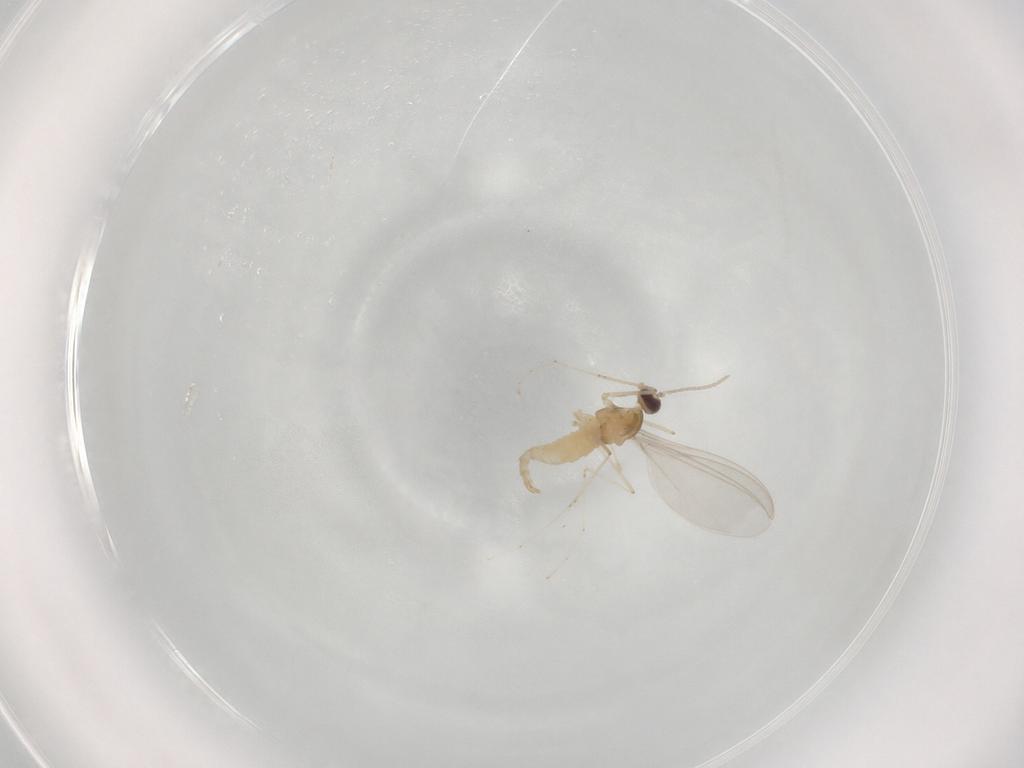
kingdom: Animalia
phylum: Arthropoda
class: Insecta
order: Diptera
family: Cecidomyiidae
